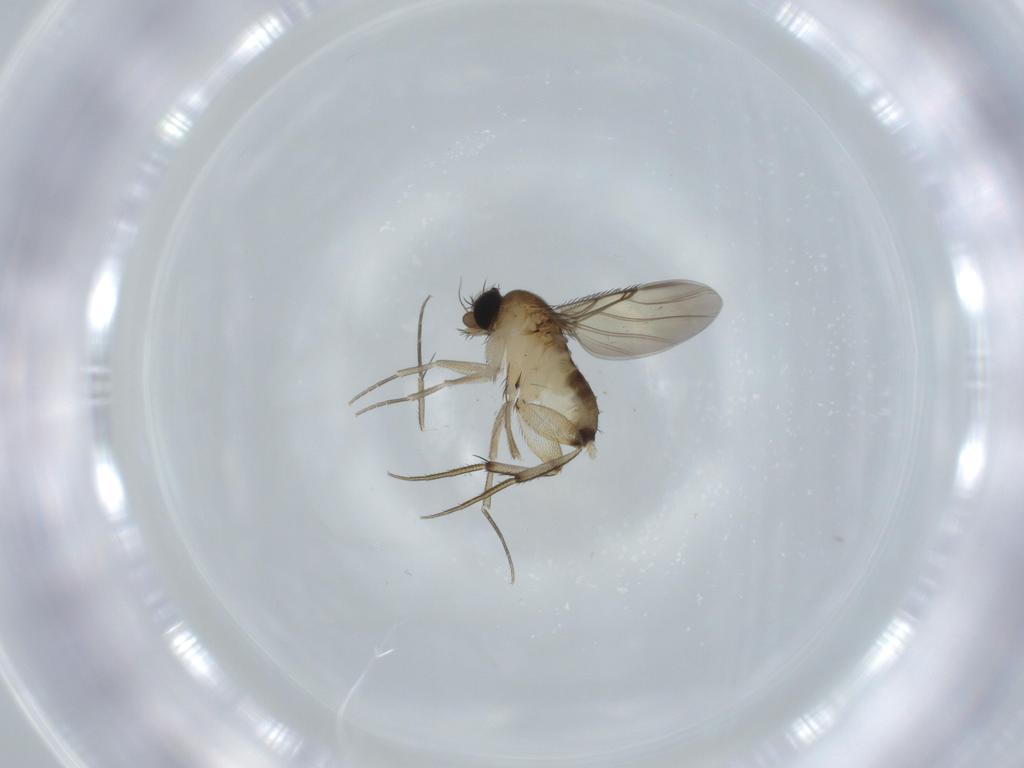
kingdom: Animalia
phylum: Arthropoda
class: Insecta
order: Diptera
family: Phoridae
